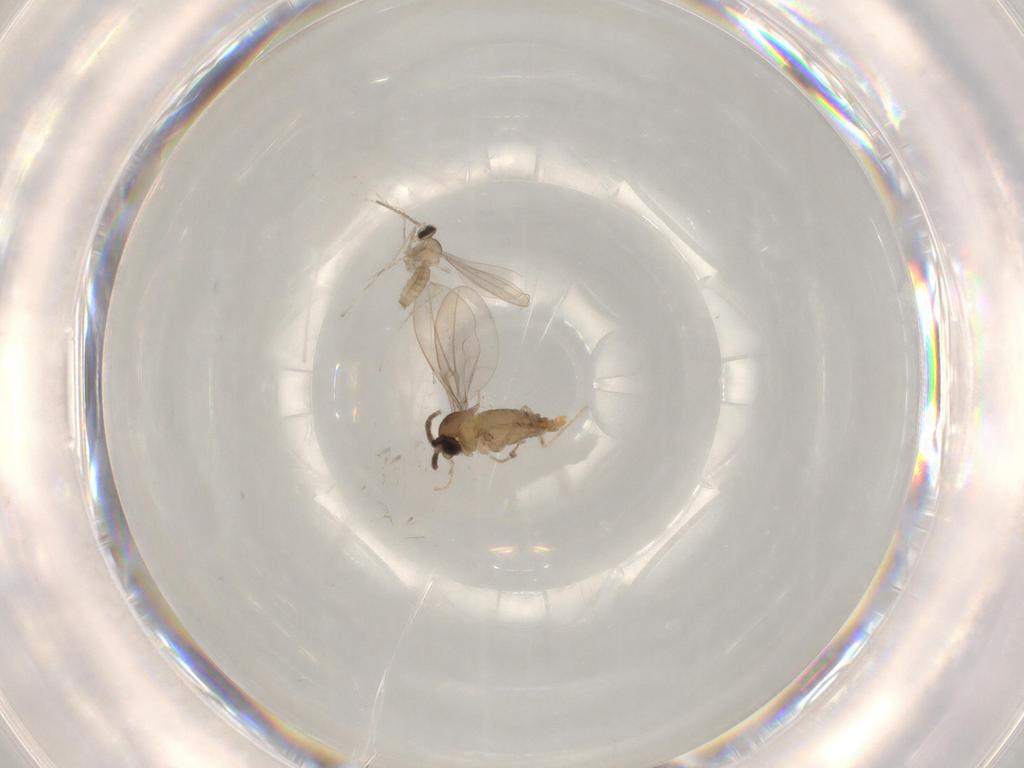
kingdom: Animalia
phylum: Arthropoda
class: Insecta
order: Diptera
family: Cecidomyiidae
